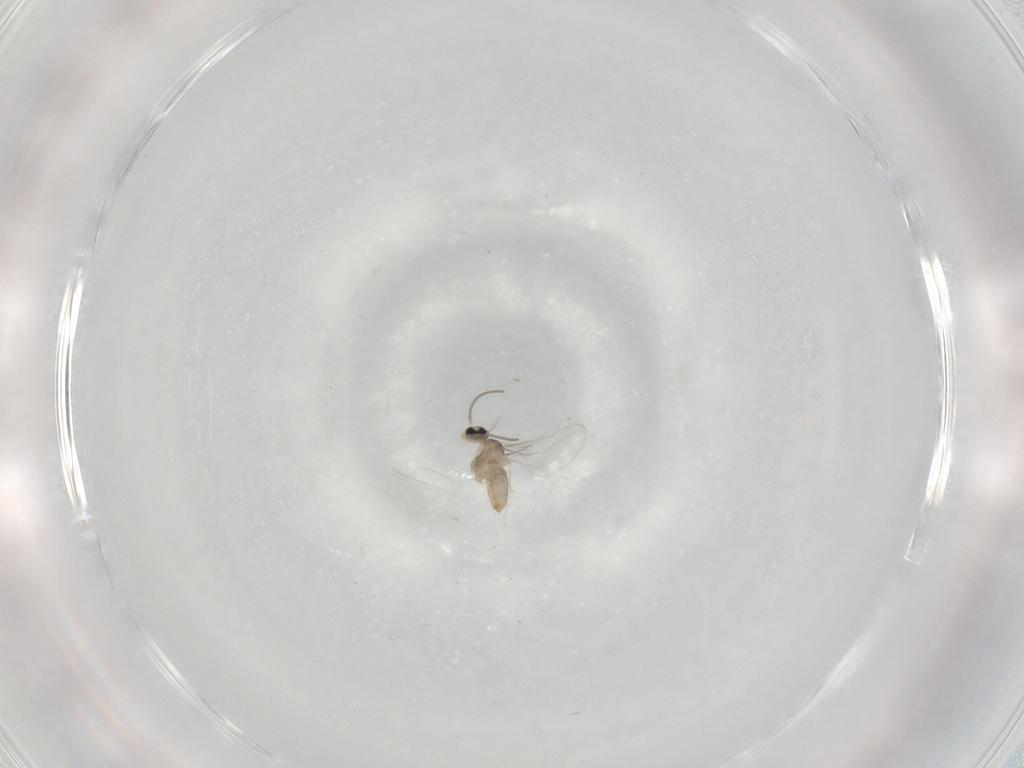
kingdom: Animalia
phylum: Arthropoda
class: Insecta
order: Diptera
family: Cecidomyiidae
